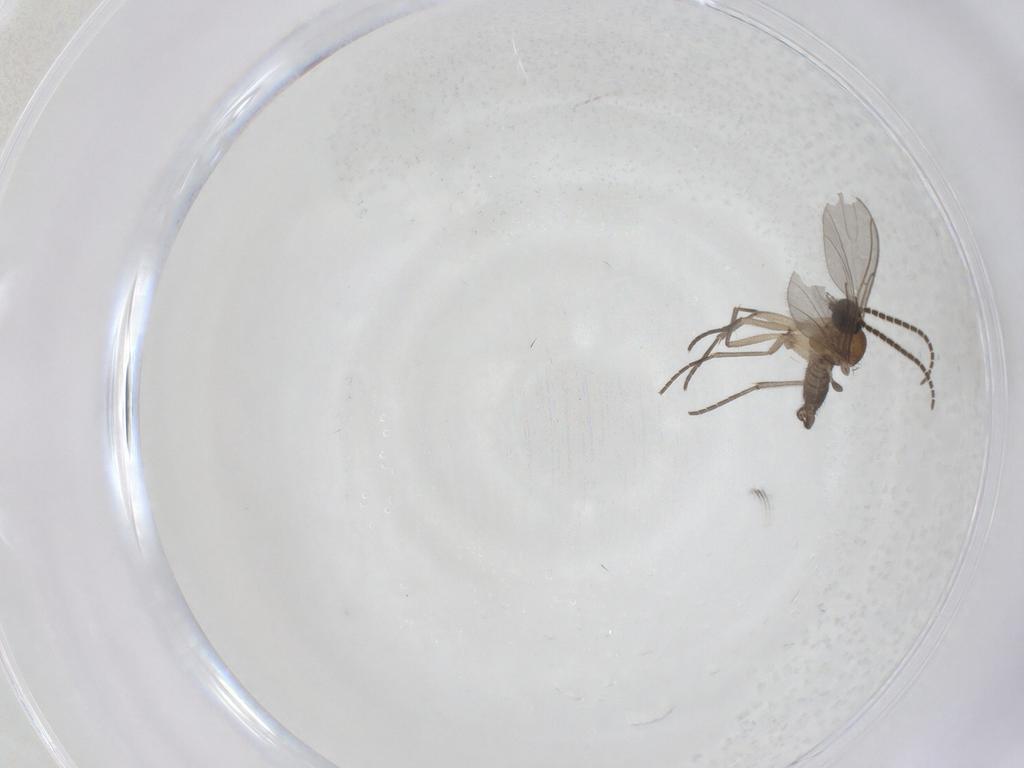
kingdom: Animalia
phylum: Arthropoda
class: Insecta
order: Diptera
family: Sciaridae
